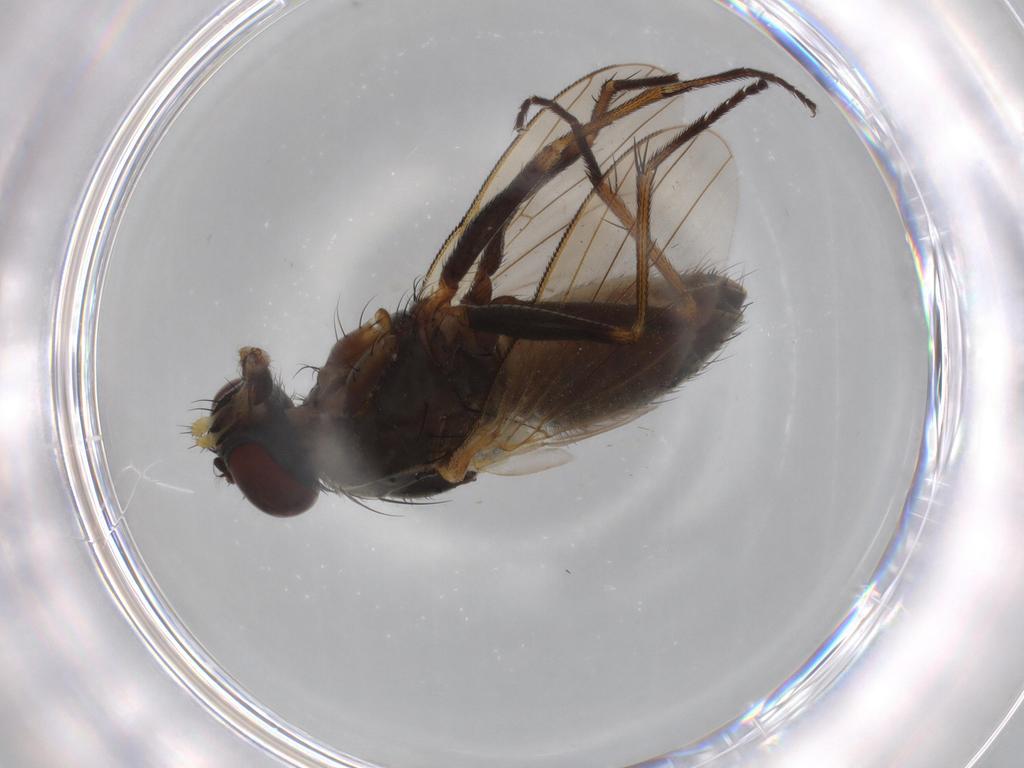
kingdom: Animalia
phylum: Arthropoda
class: Insecta
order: Diptera
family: Muscidae
